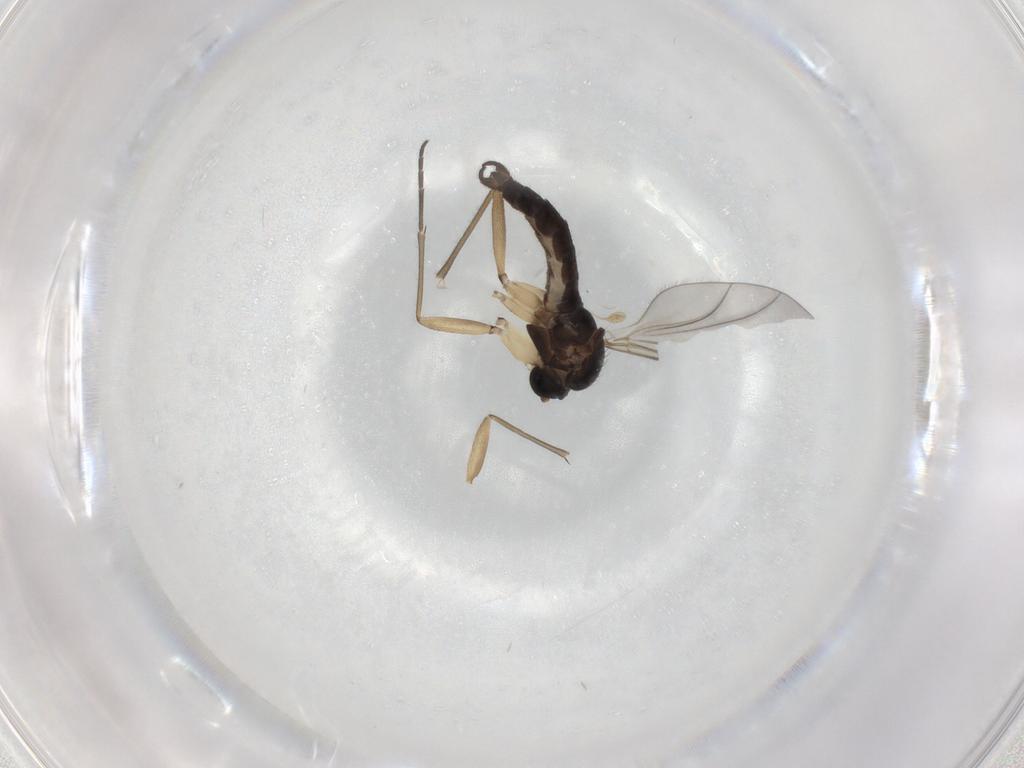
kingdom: Animalia
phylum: Arthropoda
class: Insecta
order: Diptera
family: Sciaridae
